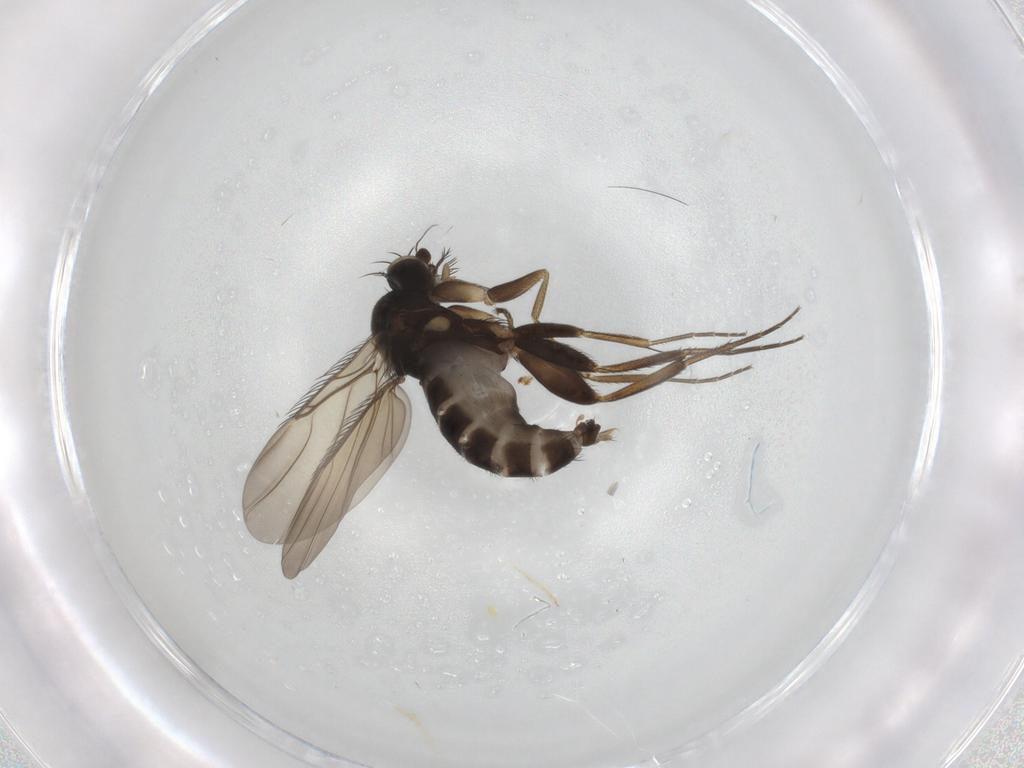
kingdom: Animalia
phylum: Arthropoda
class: Insecta
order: Diptera
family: Phoridae
